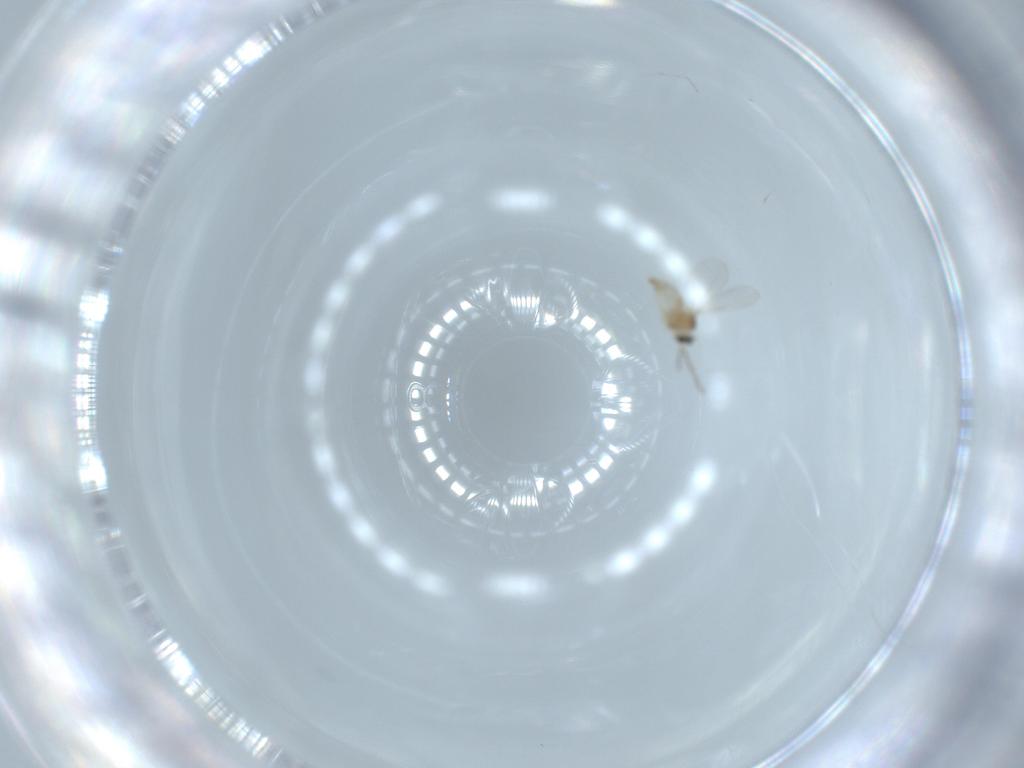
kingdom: Animalia
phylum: Arthropoda
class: Insecta
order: Diptera
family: Cecidomyiidae
